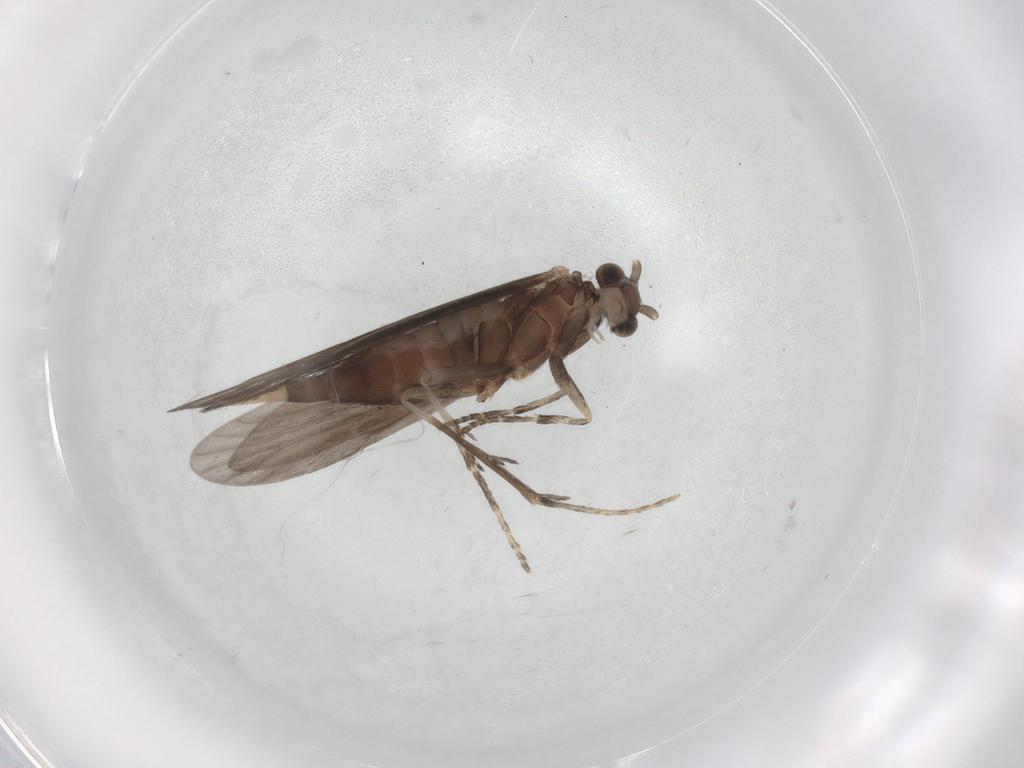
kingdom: Animalia
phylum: Arthropoda
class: Insecta
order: Trichoptera
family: Xiphocentronidae
